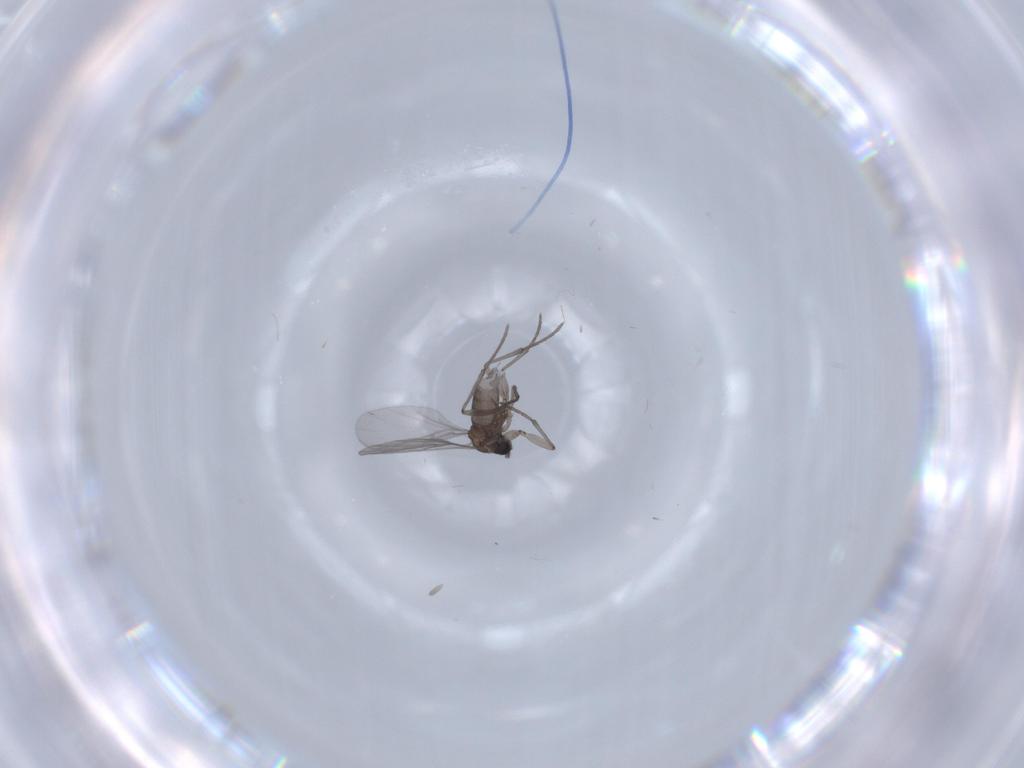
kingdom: Animalia
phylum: Arthropoda
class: Insecta
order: Diptera
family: Sciaridae
